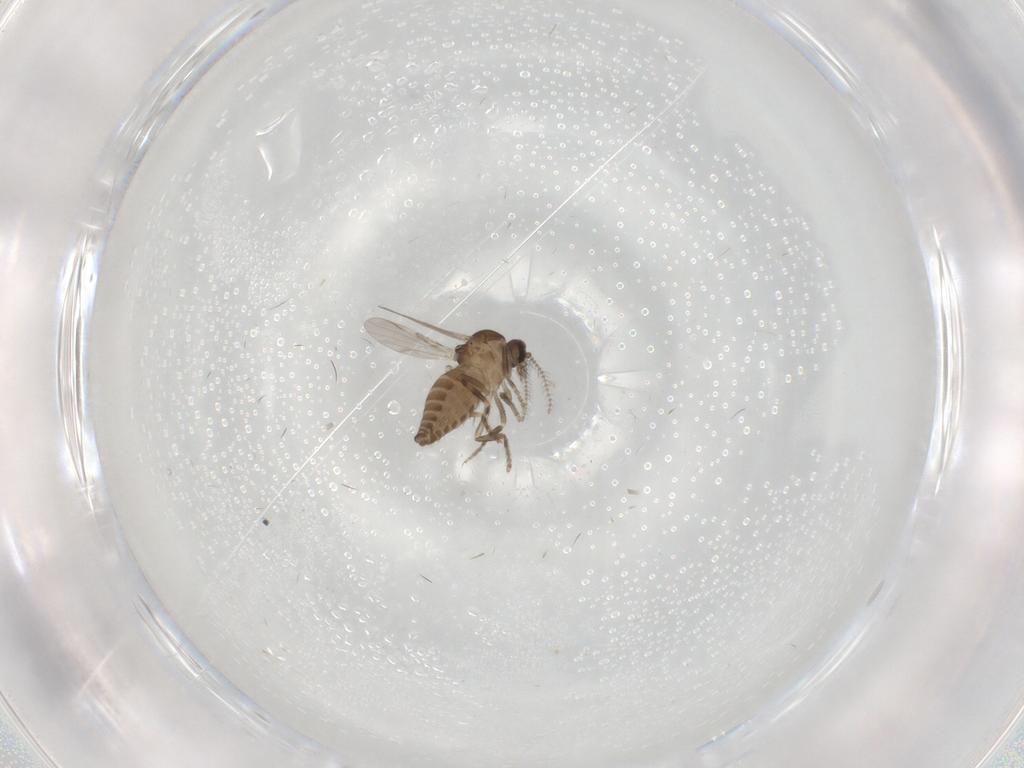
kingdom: Animalia
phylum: Arthropoda
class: Insecta
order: Diptera
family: Ceratopogonidae
